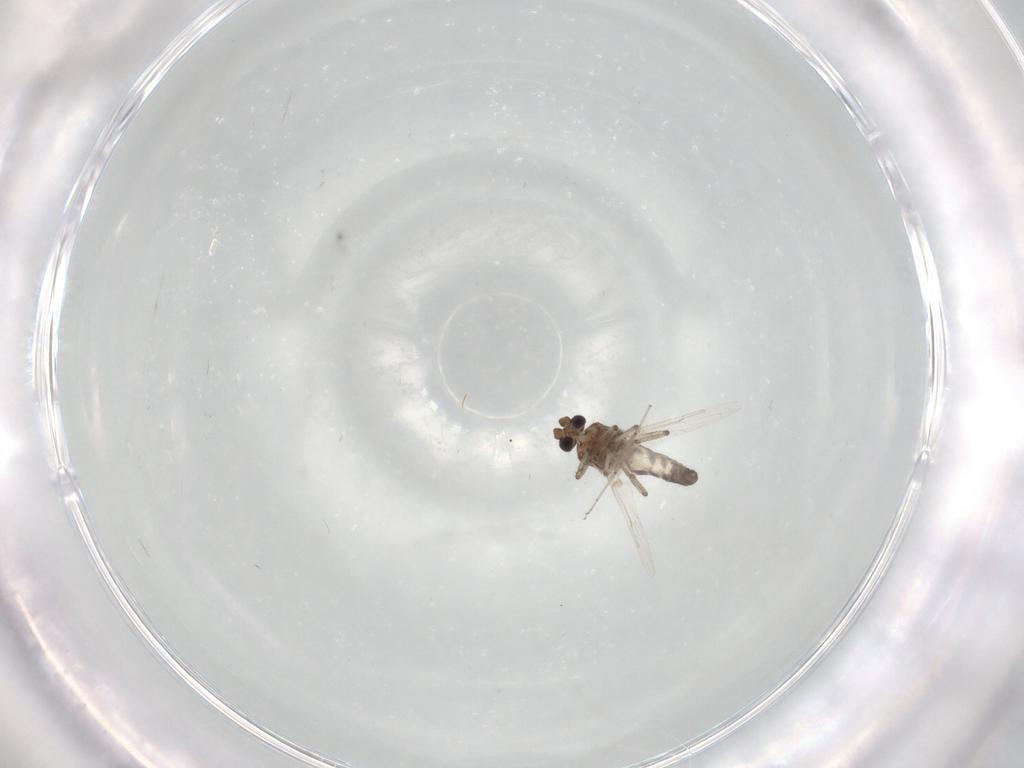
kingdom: Animalia
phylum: Arthropoda
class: Insecta
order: Diptera
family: Ceratopogonidae
